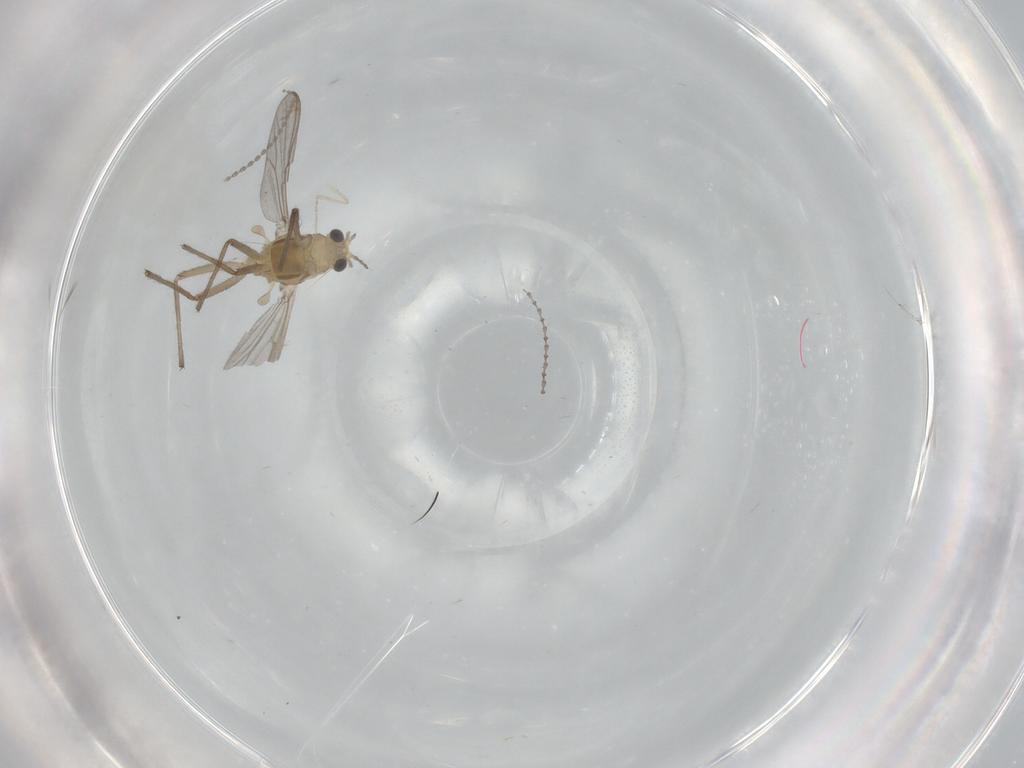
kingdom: Animalia
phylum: Arthropoda
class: Insecta
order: Diptera
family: Chironomidae
